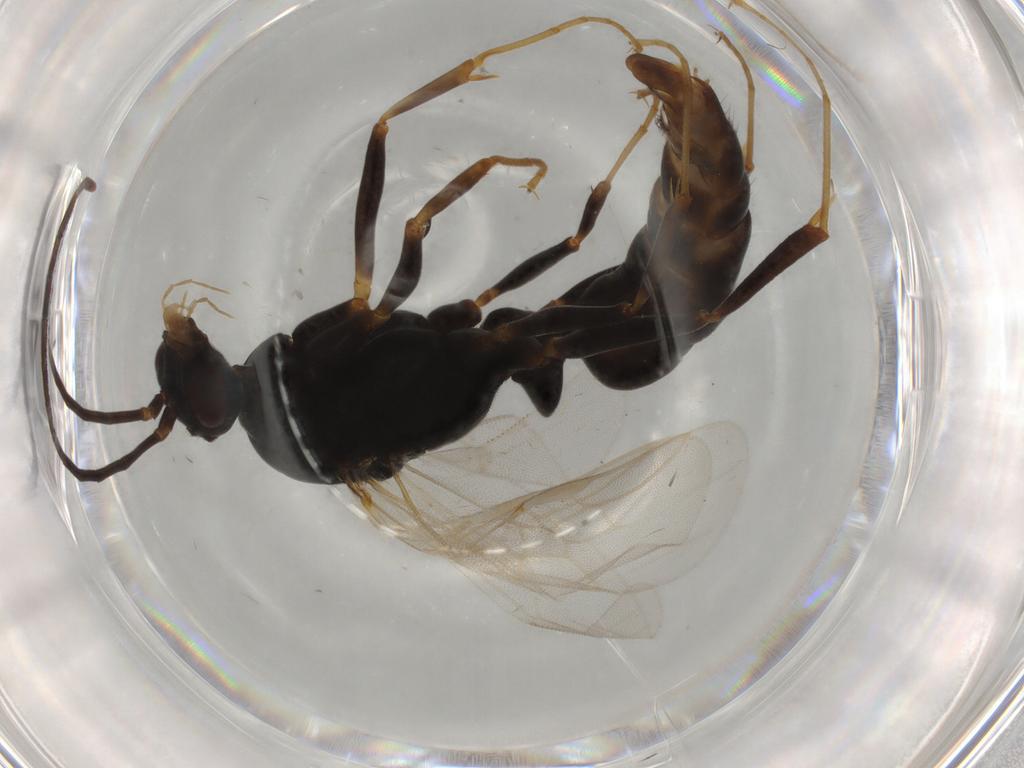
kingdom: Animalia
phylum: Arthropoda
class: Insecta
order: Hymenoptera
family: Formicidae
